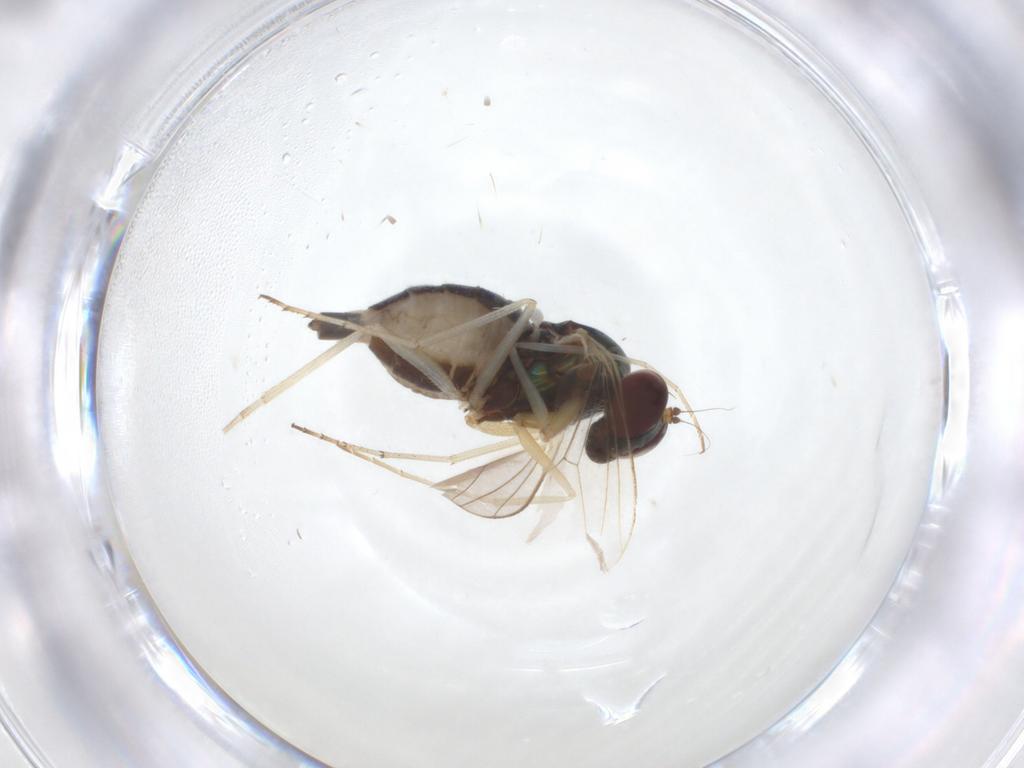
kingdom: Animalia
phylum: Arthropoda
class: Insecta
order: Diptera
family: Dolichopodidae
